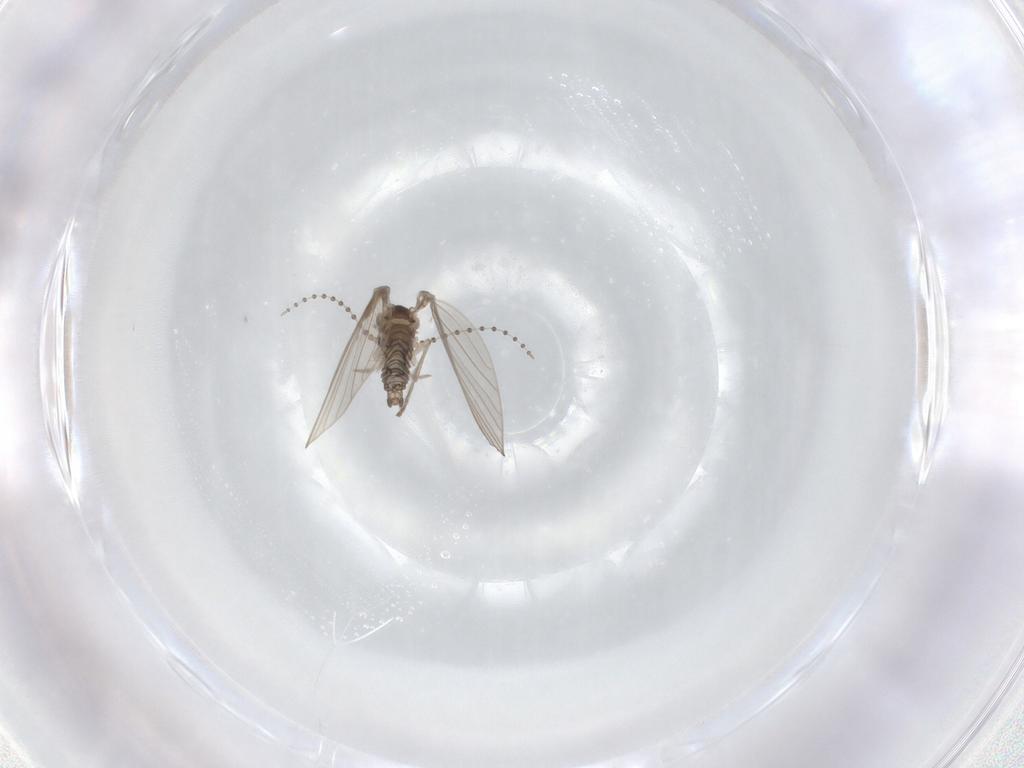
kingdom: Animalia
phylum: Arthropoda
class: Insecta
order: Diptera
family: Psychodidae
